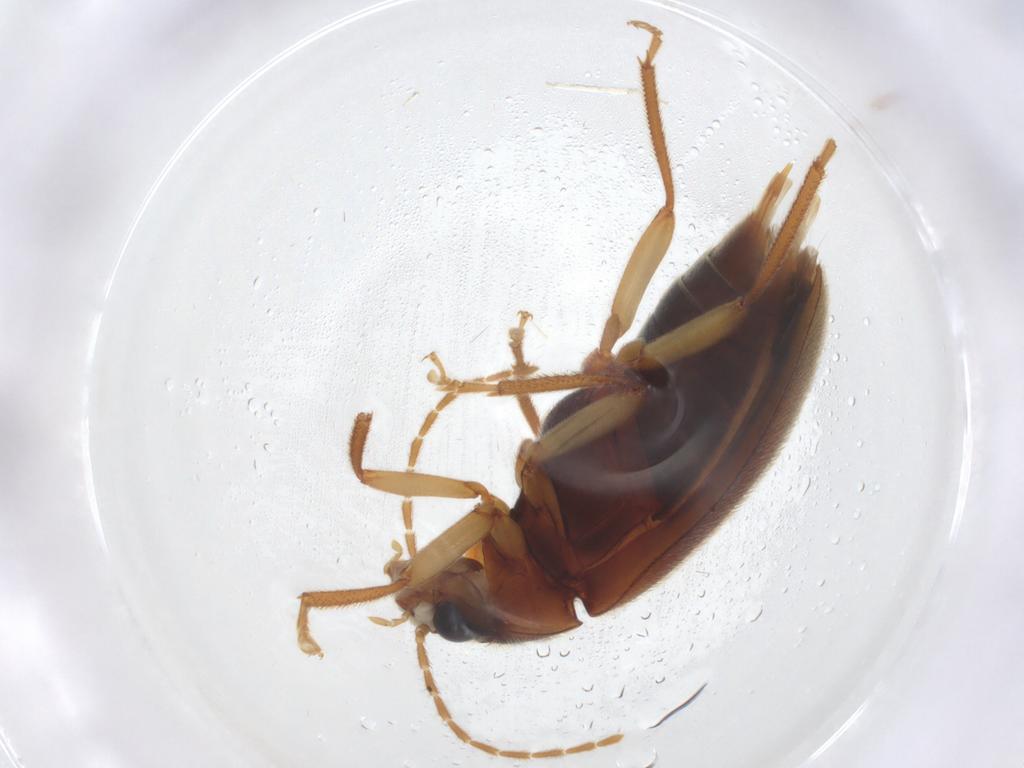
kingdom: Animalia
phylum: Arthropoda
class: Insecta
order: Coleoptera
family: Ptilodactylidae
